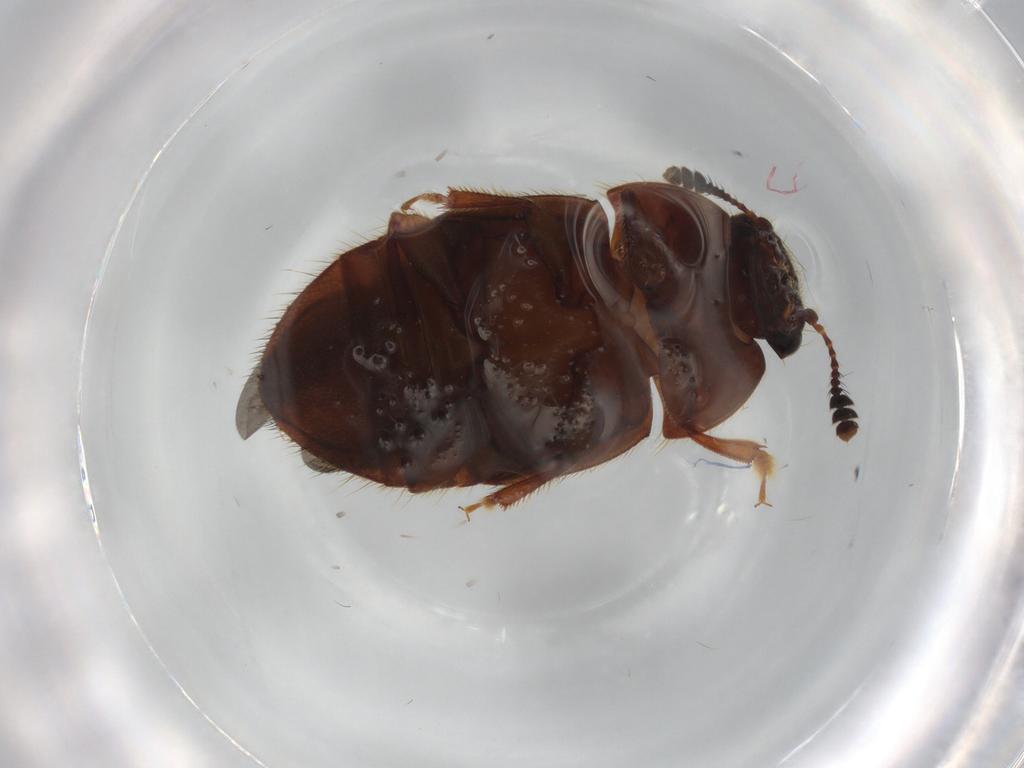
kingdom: Animalia
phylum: Arthropoda
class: Insecta
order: Coleoptera
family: Nitidulidae
